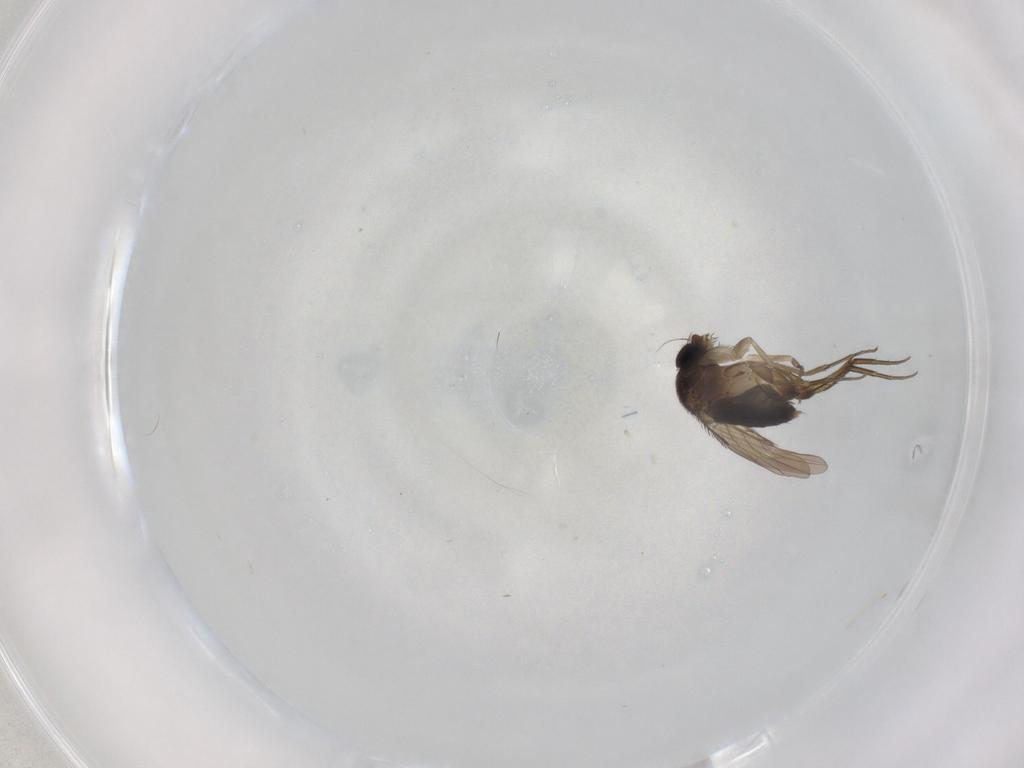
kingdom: Animalia
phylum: Arthropoda
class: Insecta
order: Diptera
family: Phoridae
